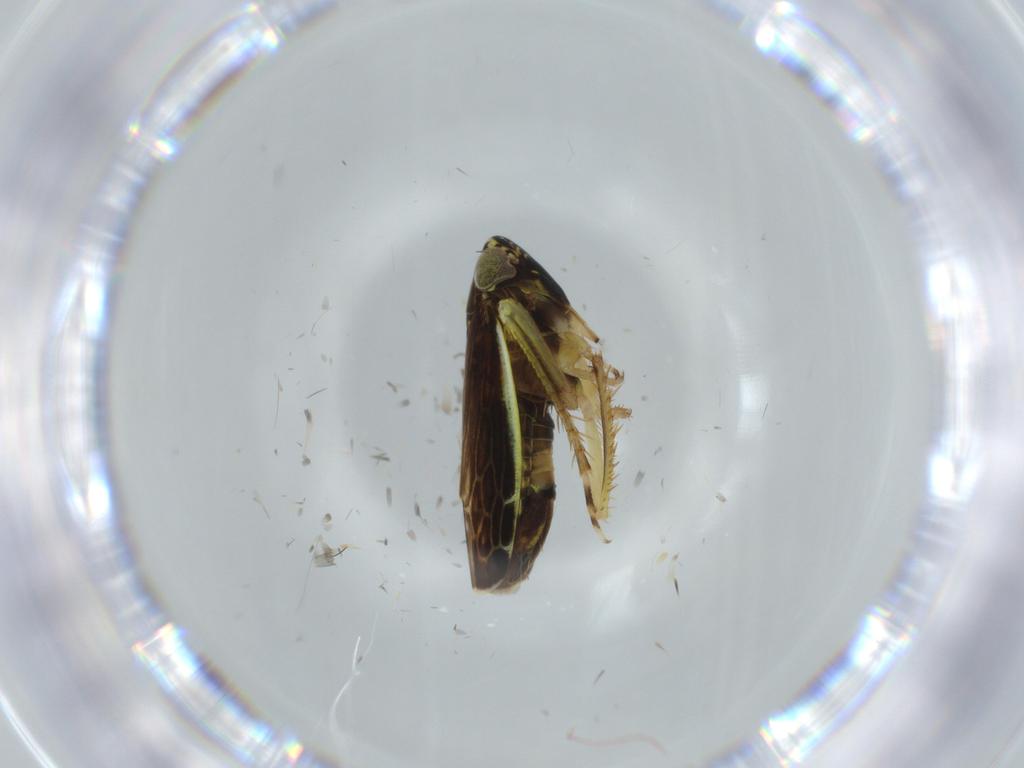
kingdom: Animalia
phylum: Arthropoda
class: Insecta
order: Hemiptera
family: Cicadellidae
